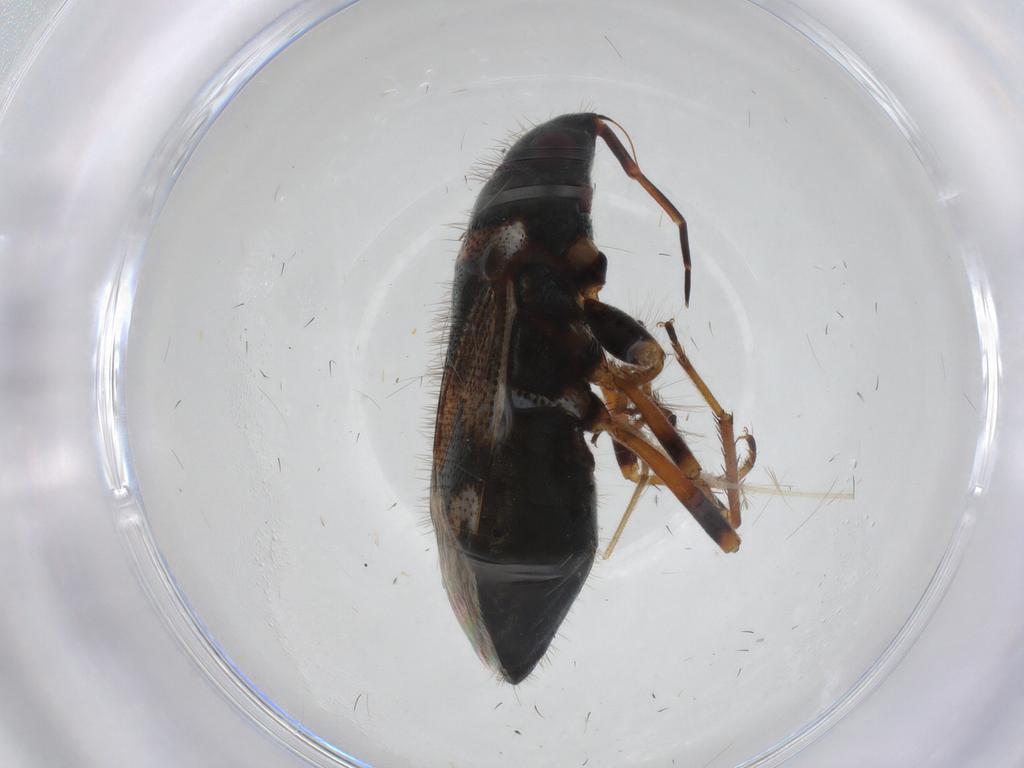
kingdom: Animalia
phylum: Arthropoda
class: Insecta
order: Hemiptera
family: Rhyparochromidae
